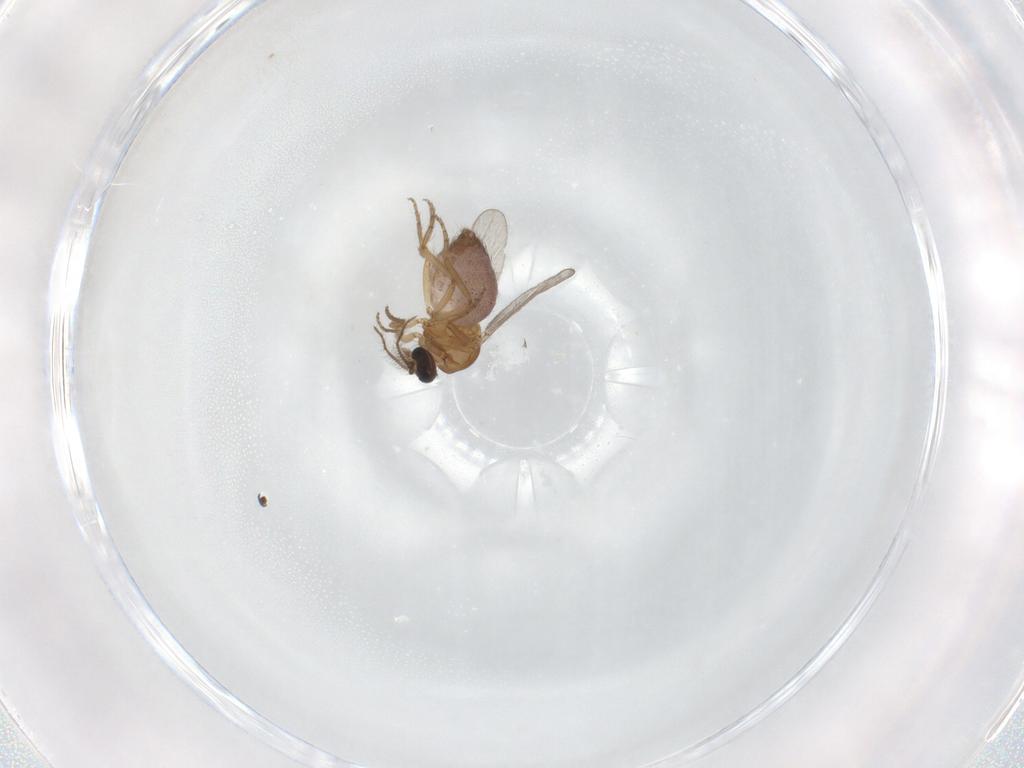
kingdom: Animalia
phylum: Arthropoda
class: Insecta
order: Diptera
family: Ceratopogonidae
